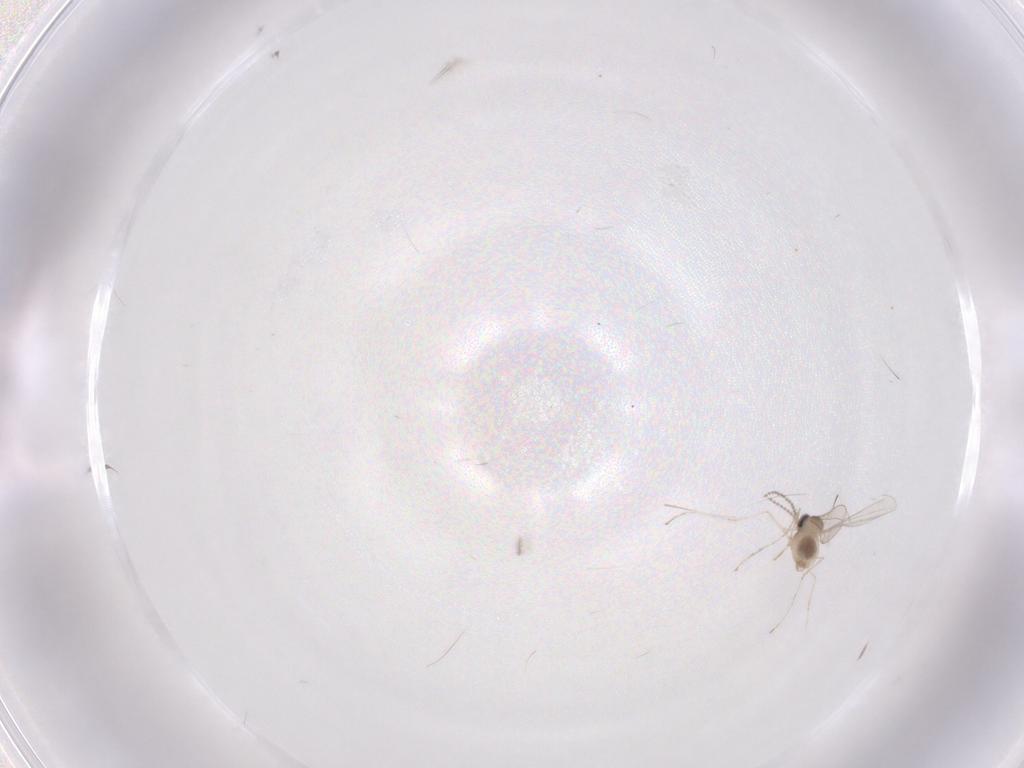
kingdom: Animalia
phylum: Arthropoda
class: Insecta
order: Diptera
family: Cecidomyiidae
